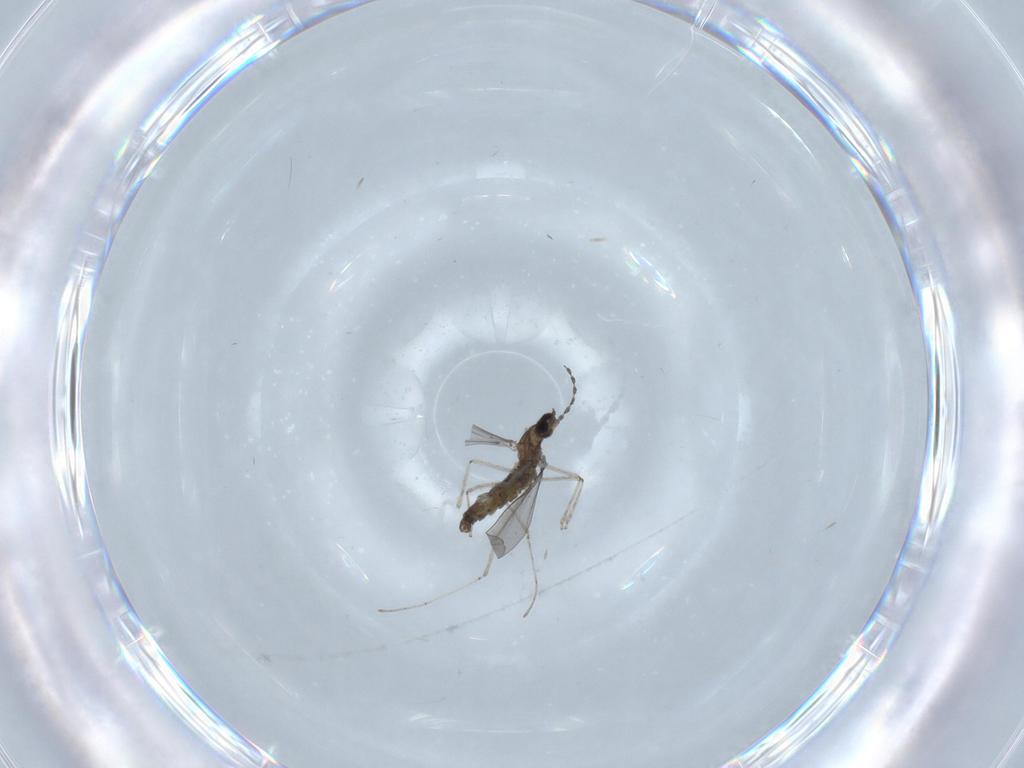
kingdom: Animalia
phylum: Arthropoda
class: Insecta
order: Diptera
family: Cecidomyiidae
